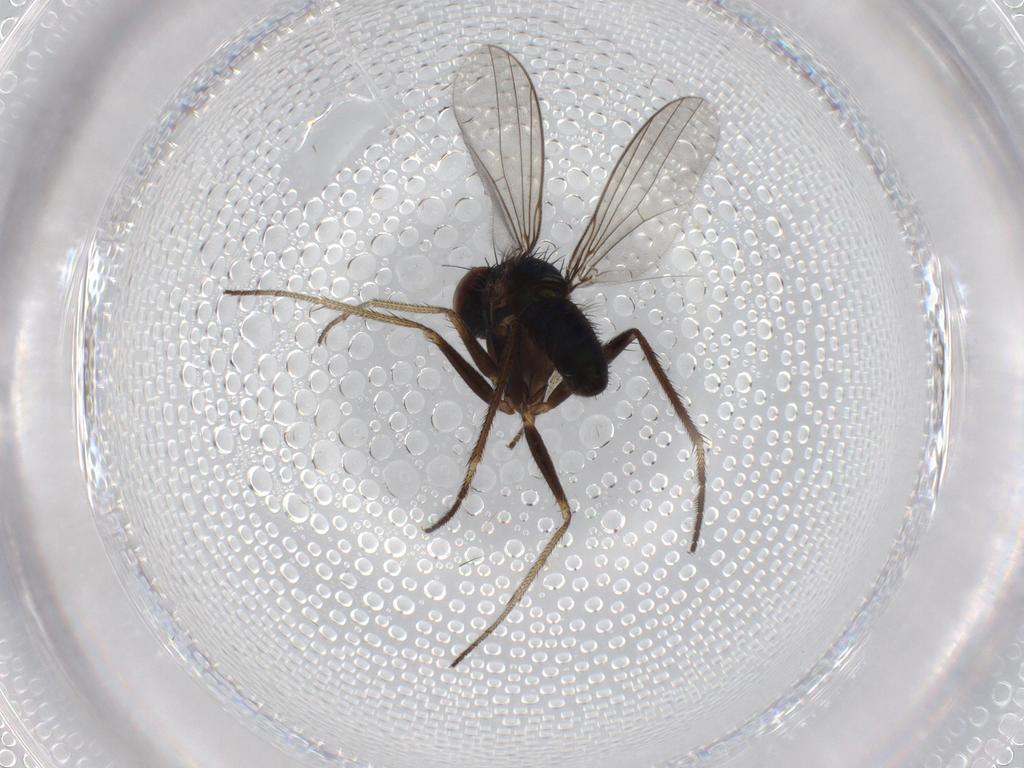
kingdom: Animalia
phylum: Arthropoda
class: Insecta
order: Diptera
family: Dolichopodidae
